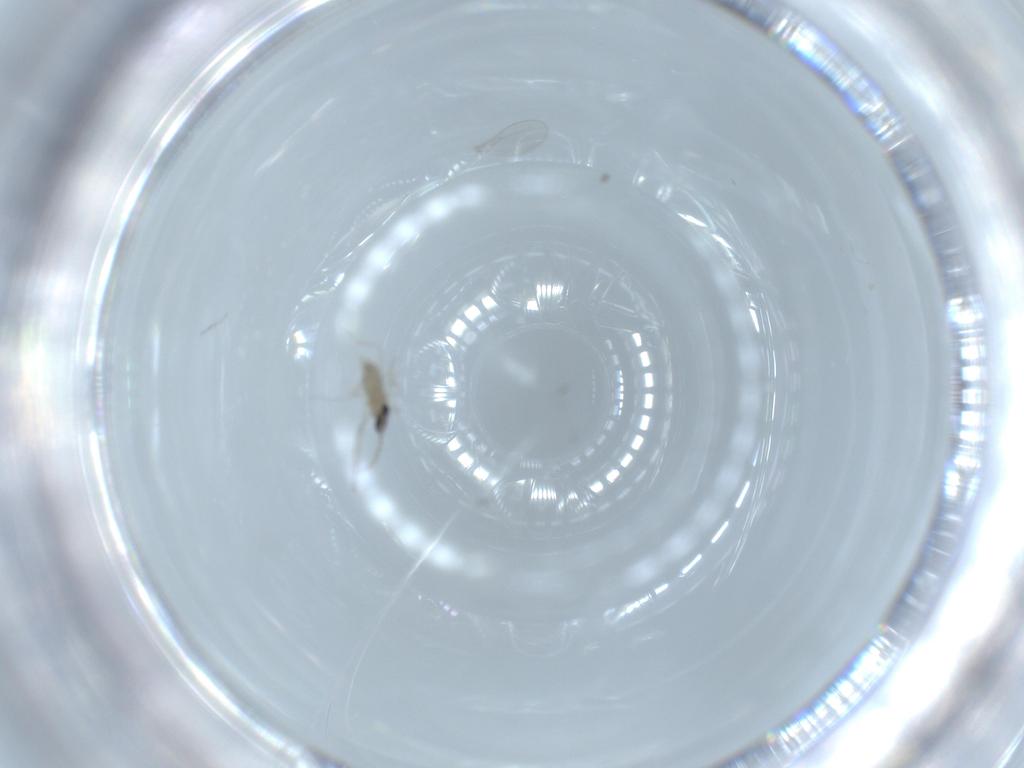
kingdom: Animalia
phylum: Arthropoda
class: Insecta
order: Diptera
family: Cecidomyiidae
